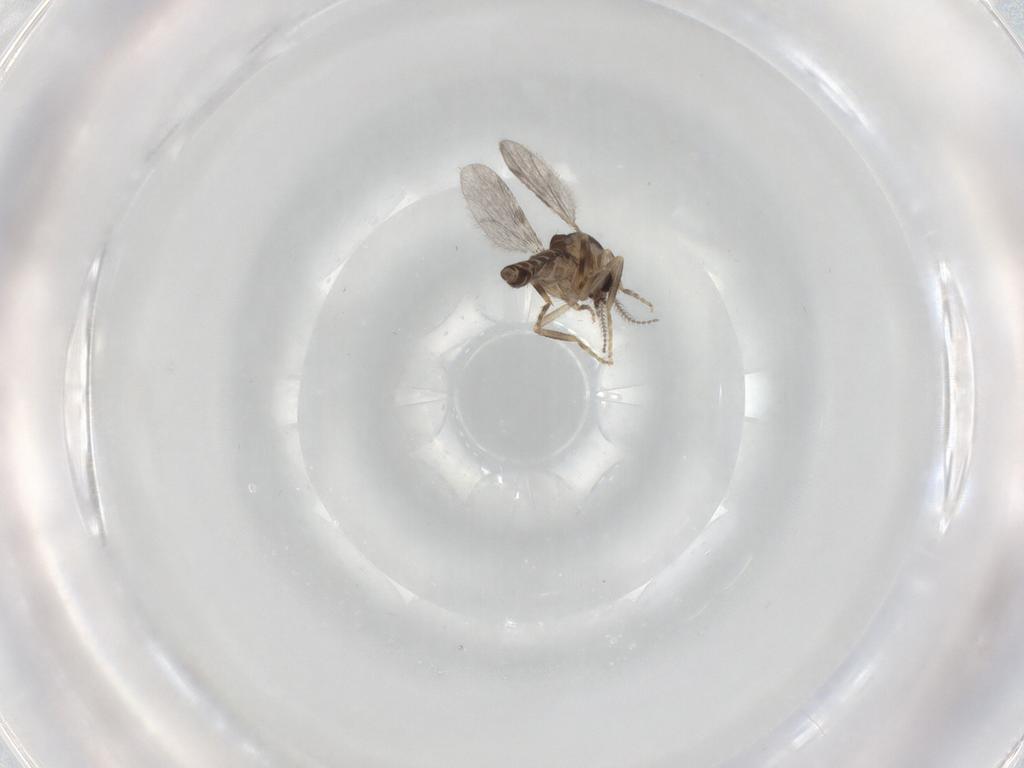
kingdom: Animalia
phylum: Arthropoda
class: Insecta
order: Diptera
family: Ceratopogonidae
